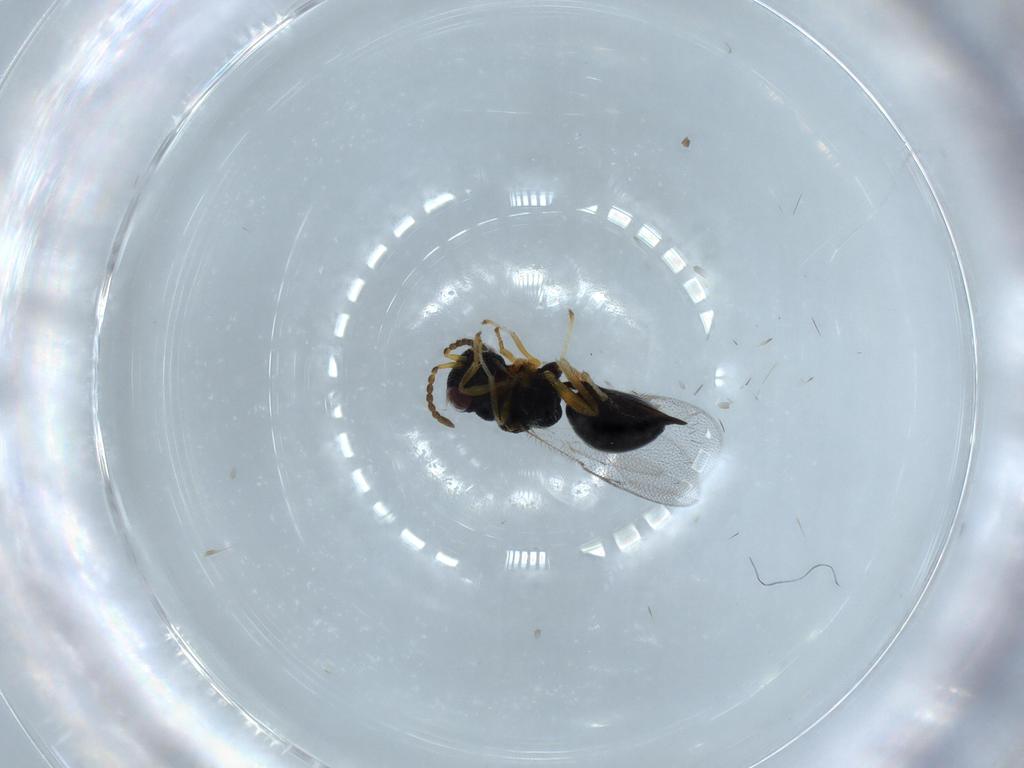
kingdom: Animalia
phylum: Arthropoda
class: Insecta
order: Hymenoptera
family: Eurytomidae
